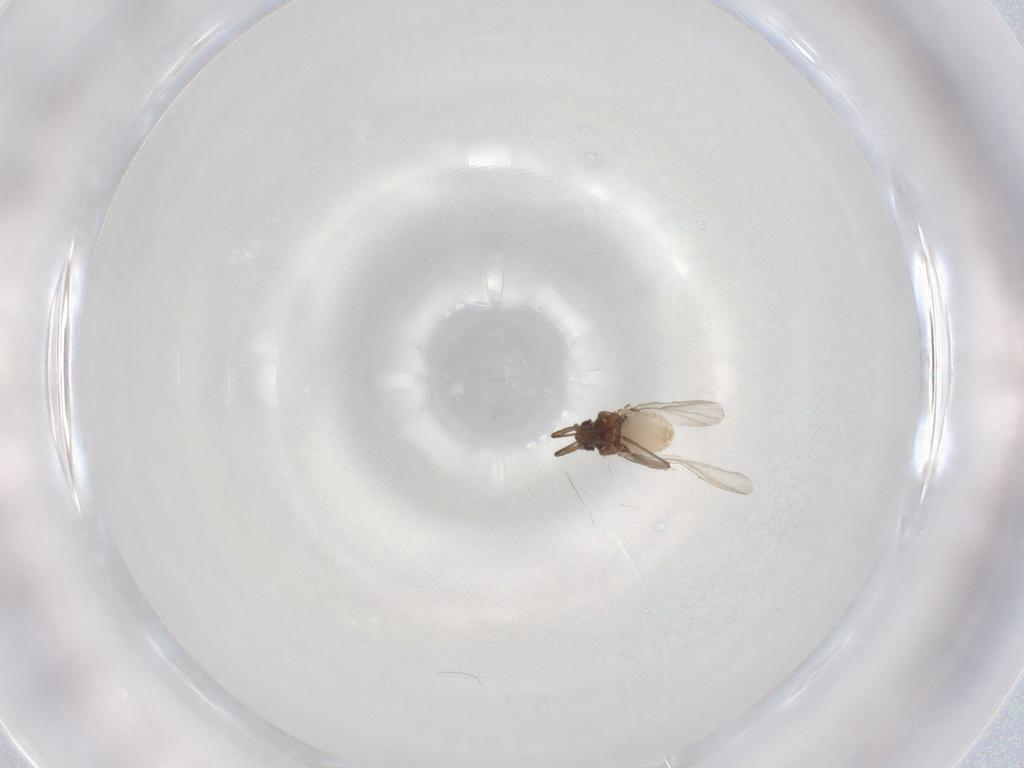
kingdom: Animalia
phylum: Arthropoda
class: Insecta
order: Hemiptera
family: Aphididae
